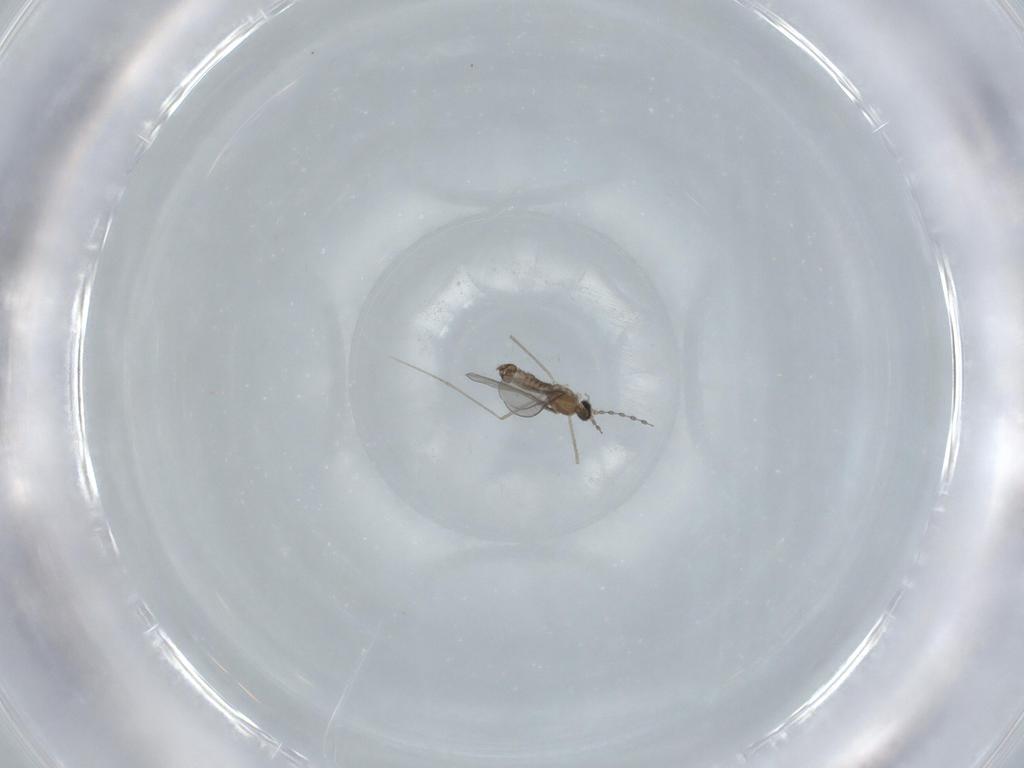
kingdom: Animalia
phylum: Arthropoda
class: Insecta
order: Diptera
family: Cecidomyiidae
